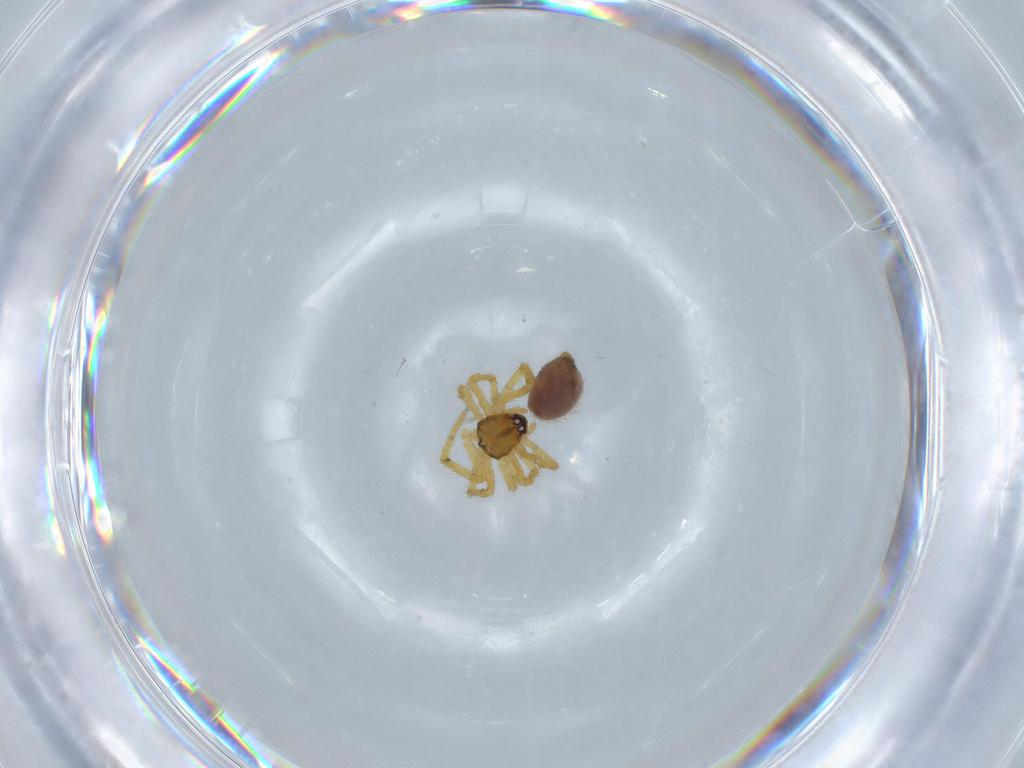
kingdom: Animalia
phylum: Arthropoda
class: Arachnida
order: Araneae
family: Theridiidae
